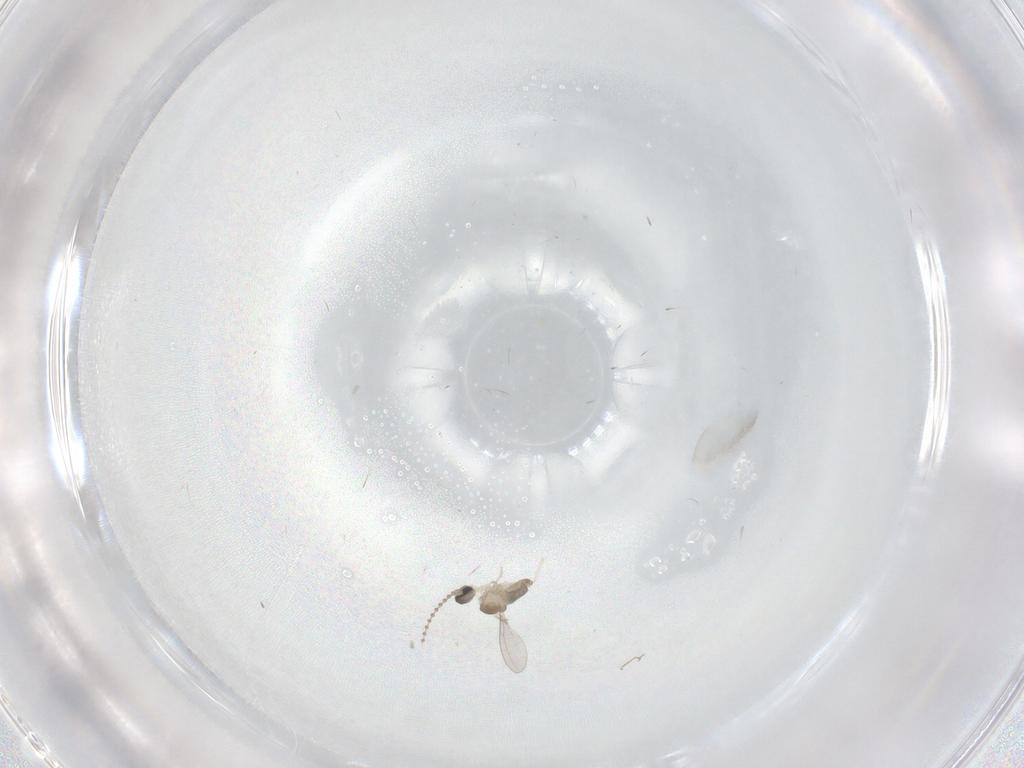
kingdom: Animalia
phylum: Arthropoda
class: Insecta
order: Diptera
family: Cecidomyiidae
